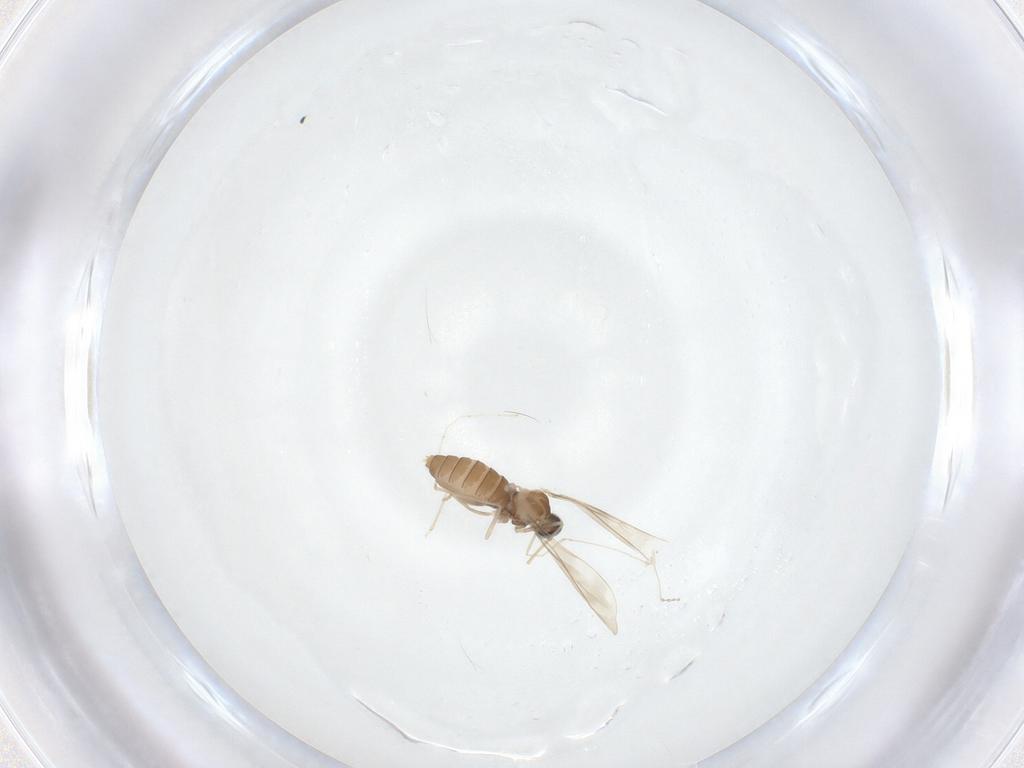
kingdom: Animalia
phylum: Arthropoda
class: Insecta
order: Diptera
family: Cecidomyiidae
